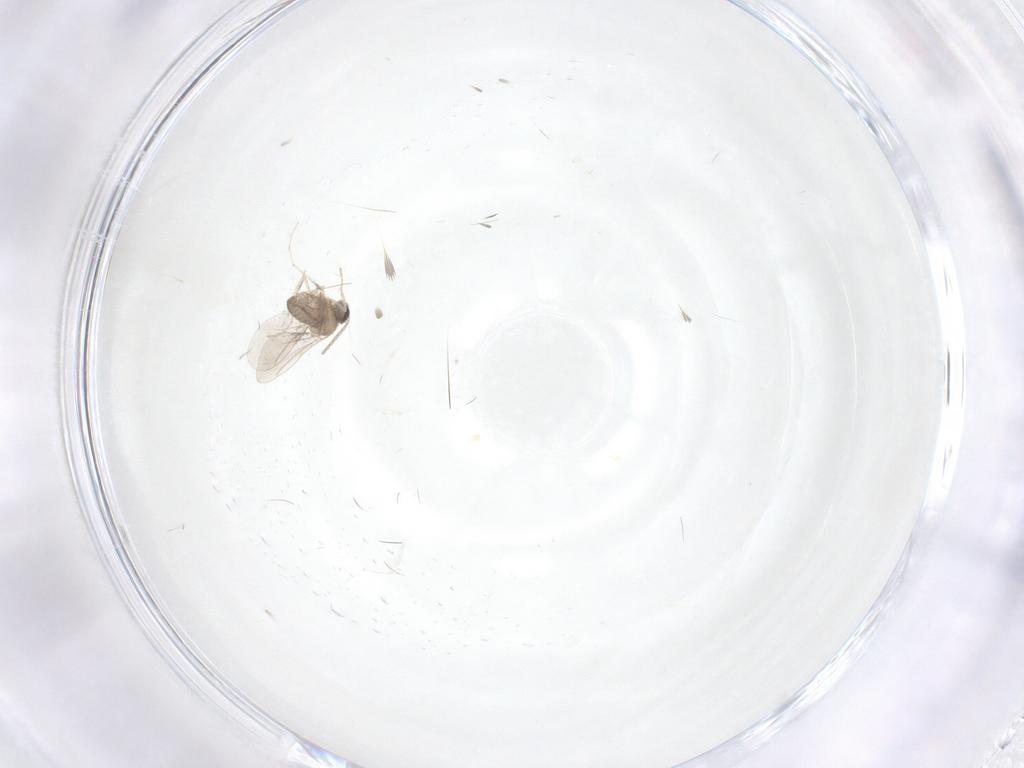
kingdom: Animalia
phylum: Arthropoda
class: Insecta
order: Diptera
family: Cecidomyiidae
